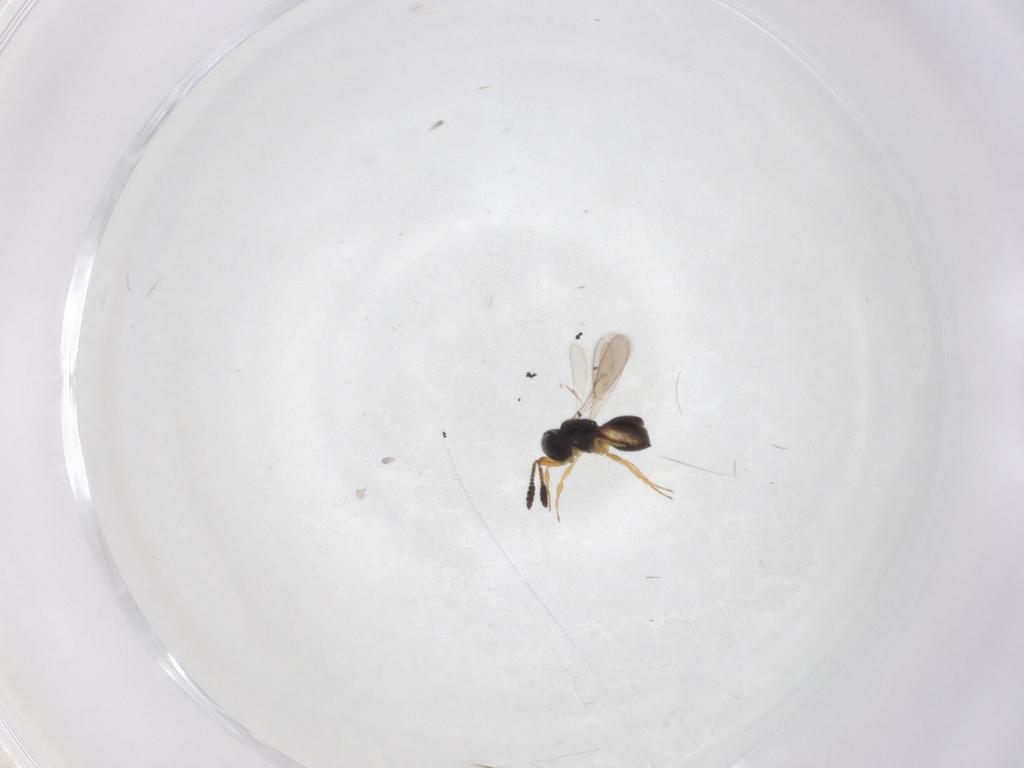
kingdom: Animalia
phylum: Arthropoda
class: Insecta
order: Hymenoptera
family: Scelionidae
